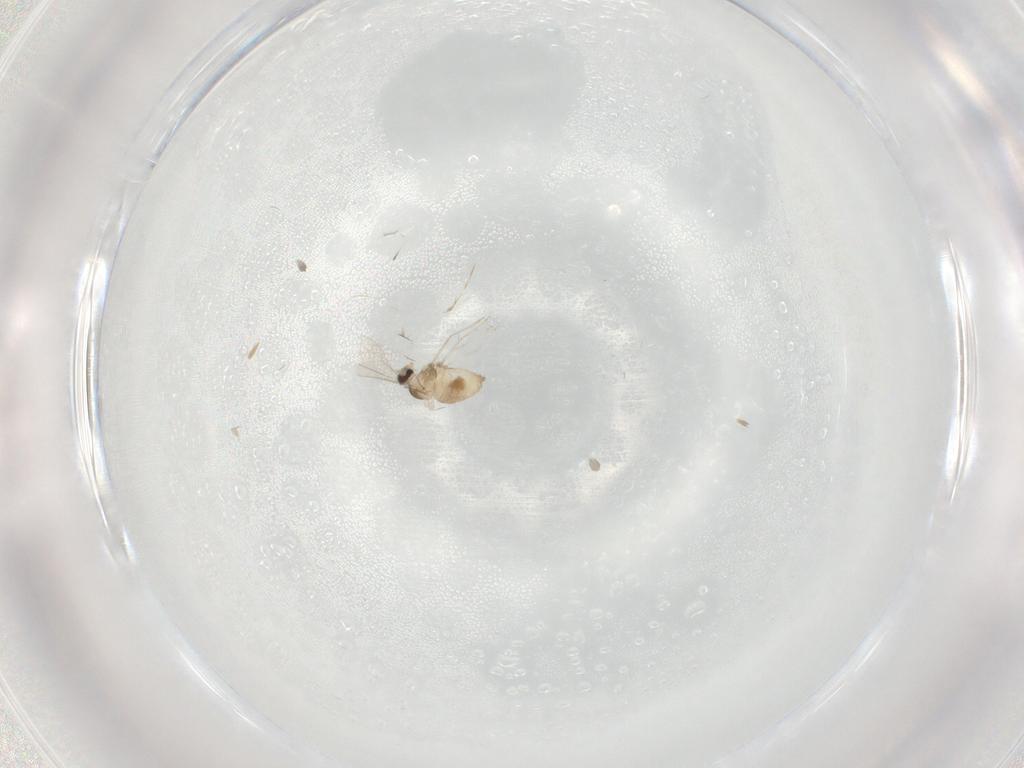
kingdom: Animalia
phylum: Arthropoda
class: Insecta
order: Diptera
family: Cecidomyiidae
